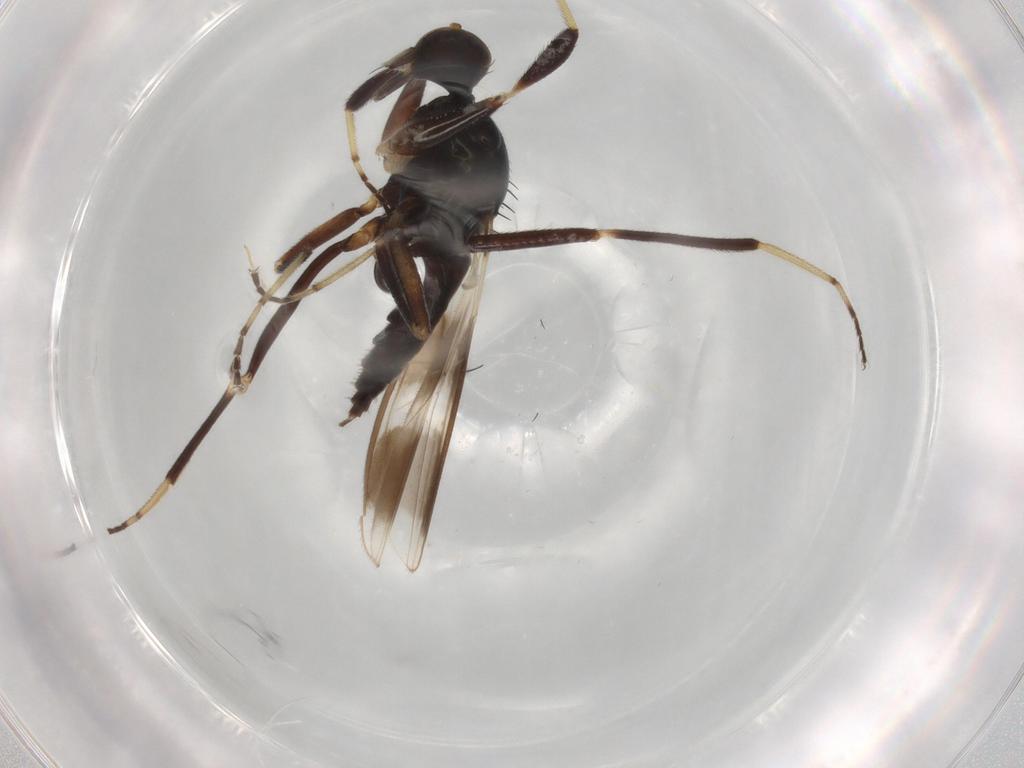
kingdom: Animalia
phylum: Arthropoda
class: Insecta
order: Diptera
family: Hybotidae
